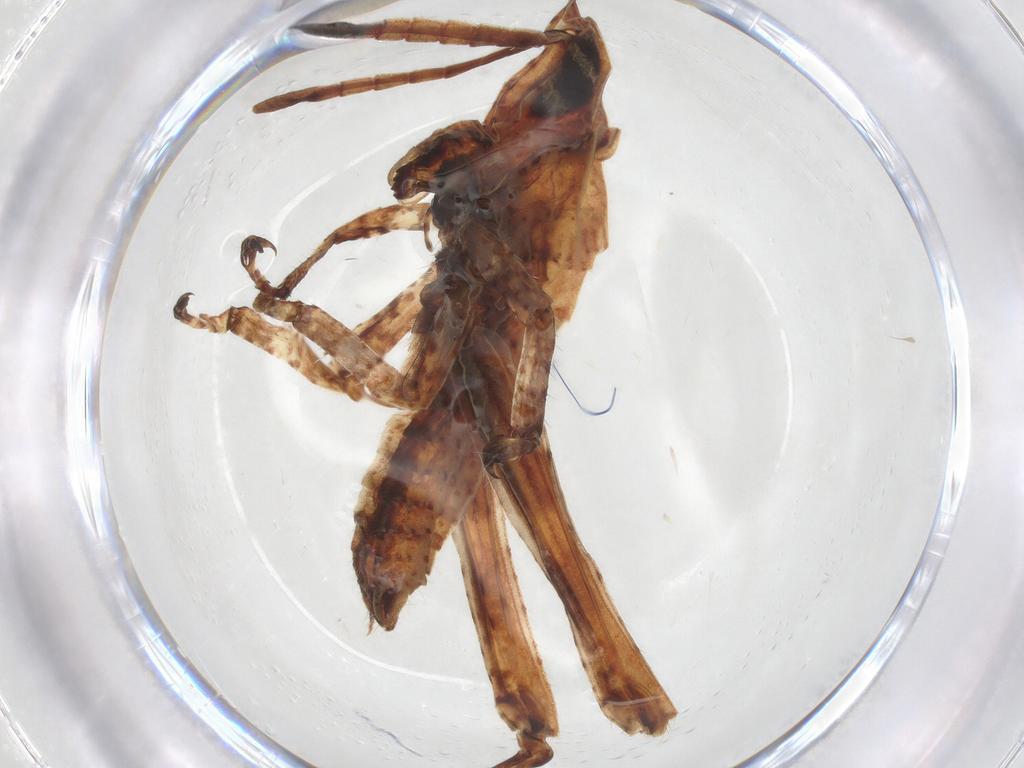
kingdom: Animalia
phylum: Arthropoda
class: Insecta
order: Orthoptera
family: Acrididae
